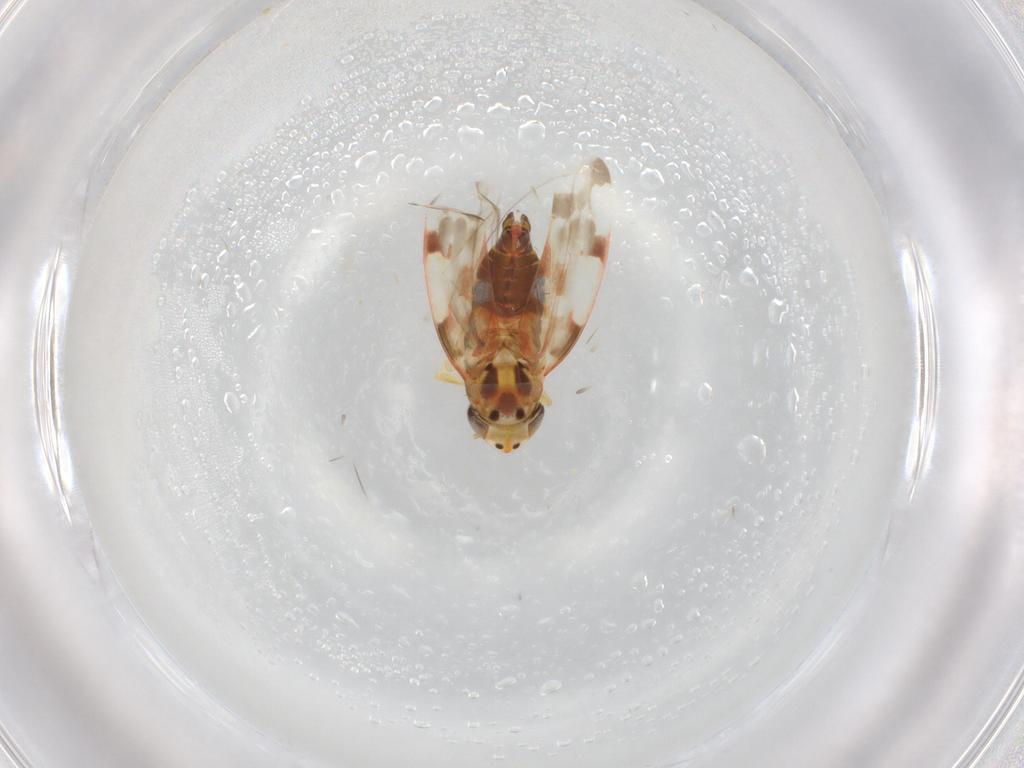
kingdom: Animalia
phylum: Arthropoda
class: Insecta
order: Hemiptera
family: Cicadellidae
